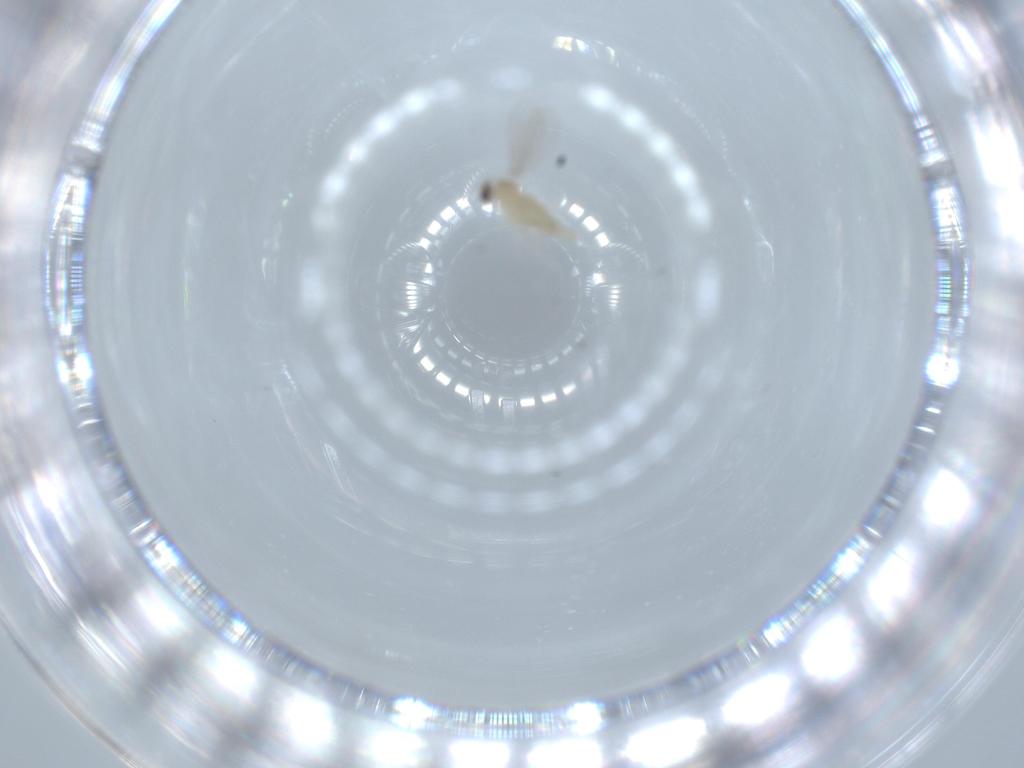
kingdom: Animalia
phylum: Arthropoda
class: Insecta
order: Diptera
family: Cecidomyiidae
